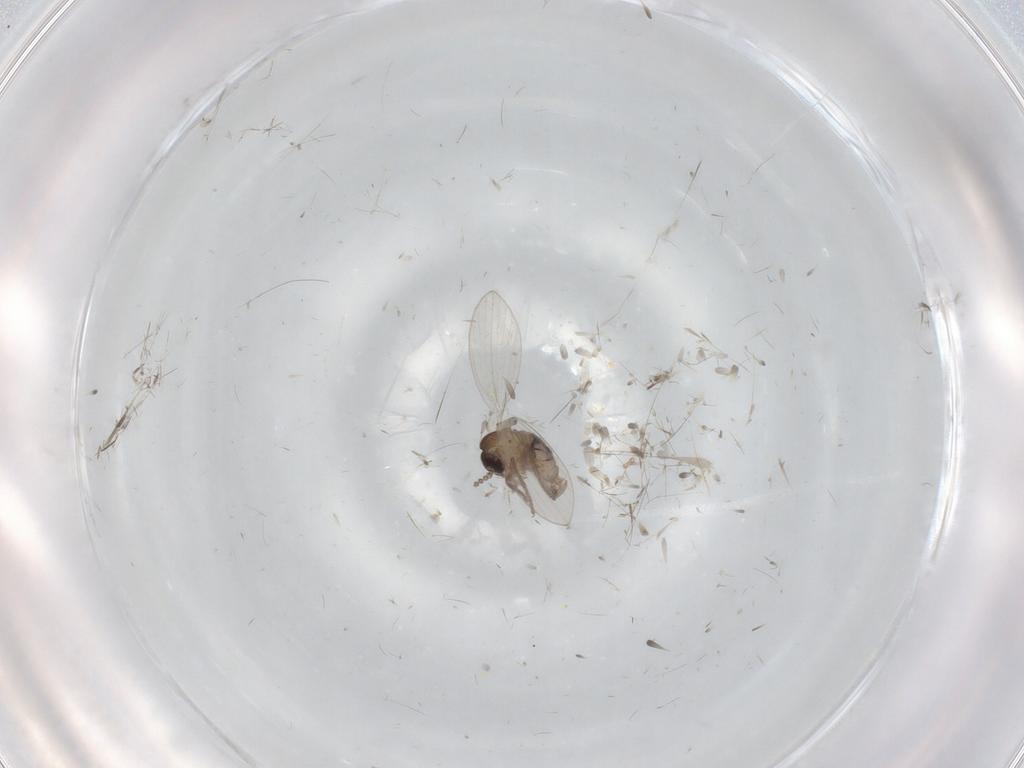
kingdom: Animalia
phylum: Arthropoda
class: Insecta
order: Diptera
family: Psychodidae
